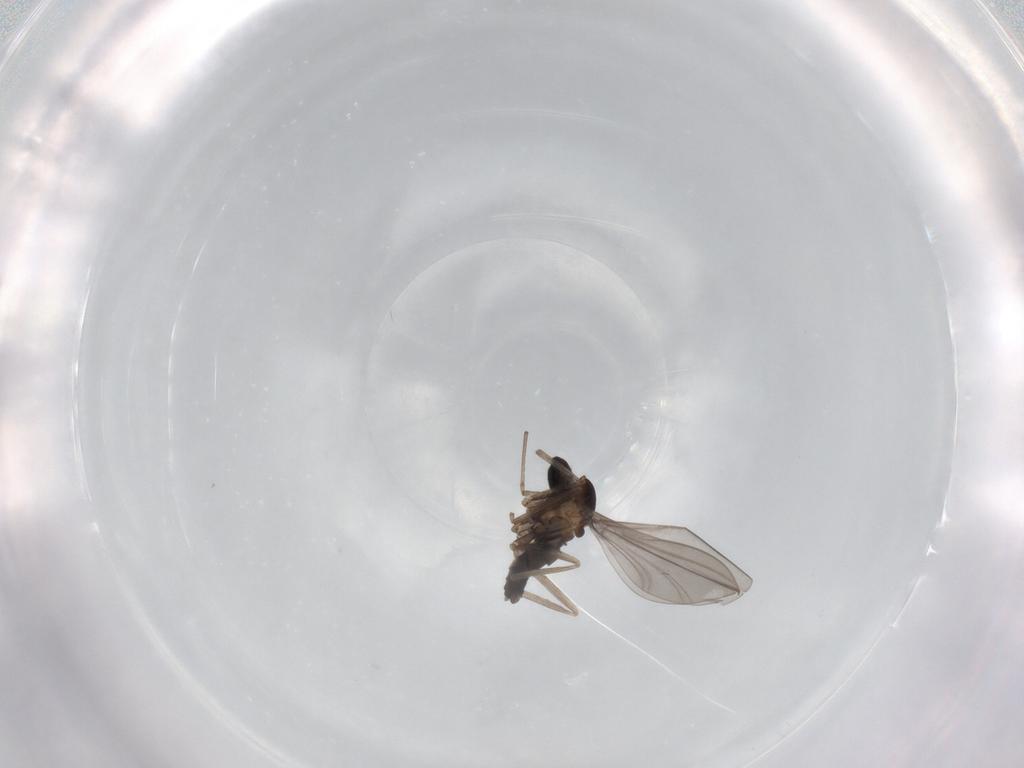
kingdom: Animalia
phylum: Arthropoda
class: Insecta
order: Diptera
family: Cecidomyiidae
